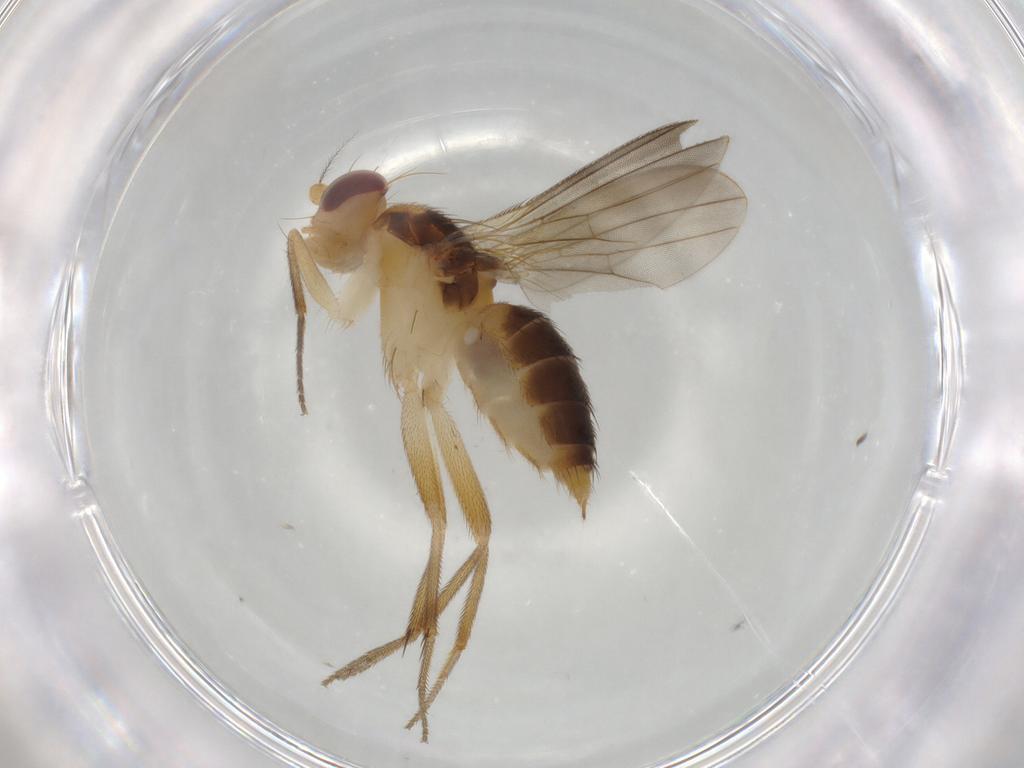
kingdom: Animalia
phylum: Arthropoda
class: Insecta
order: Diptera
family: Agromyzidae
